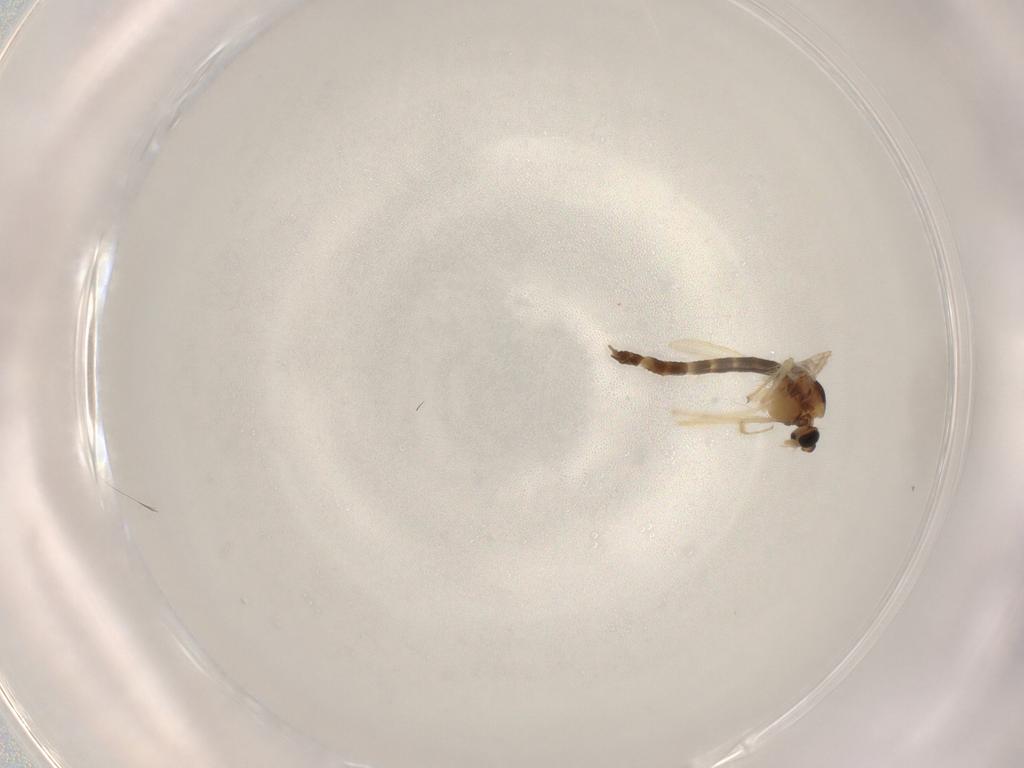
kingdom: Animalia
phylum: Arthropoda
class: Insecta
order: Diptera
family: Chironomidae
